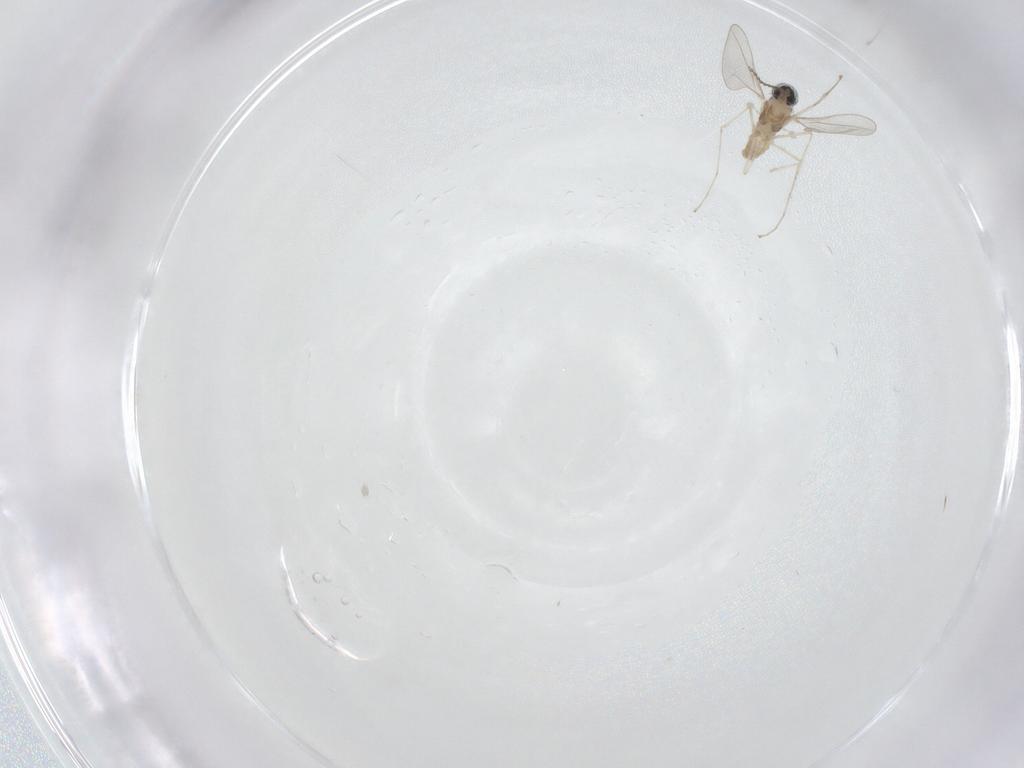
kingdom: Animalia
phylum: Arthropoda
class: Insecta
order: Diptera
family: Cecidomyiidae
